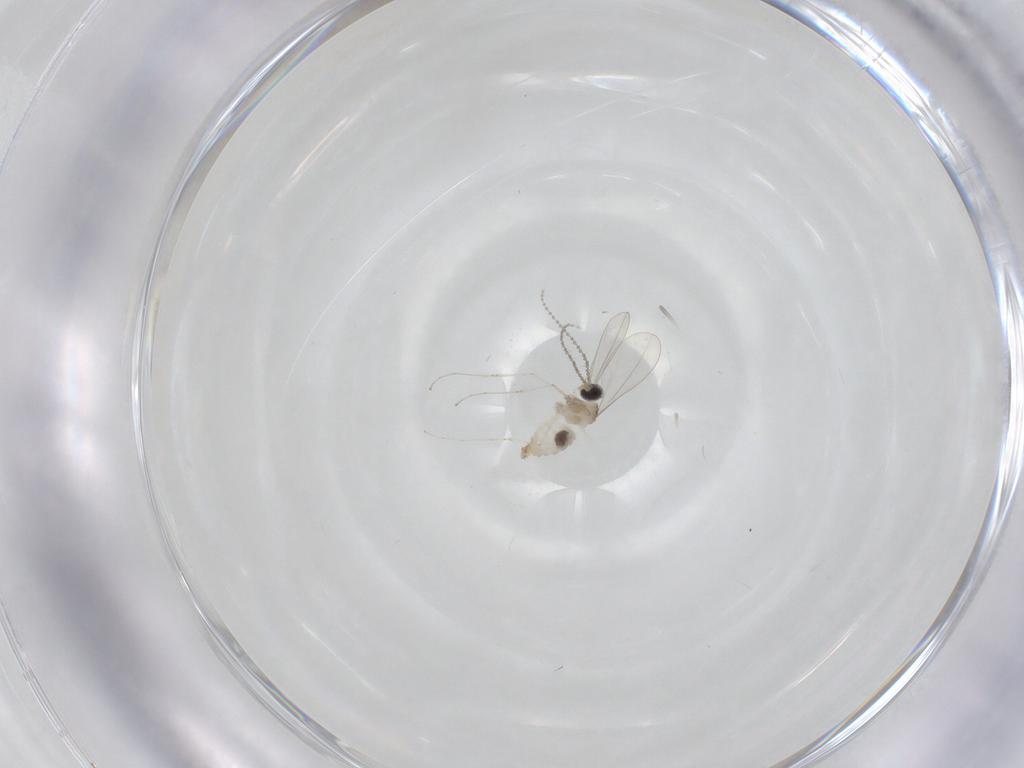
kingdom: Animalia
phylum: Arthropoda
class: Insecta
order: Diptera
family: Cecidomyiidae
